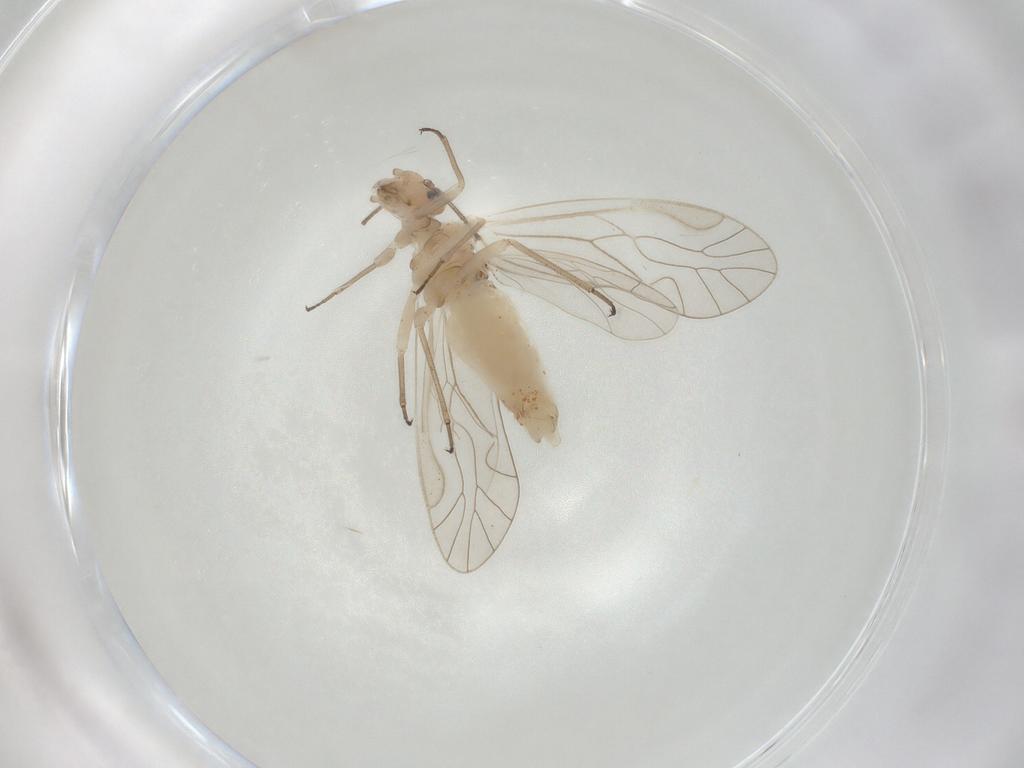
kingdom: Animalia
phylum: Arthropoda
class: Insecta
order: Psocodea
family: Elipsocidae
